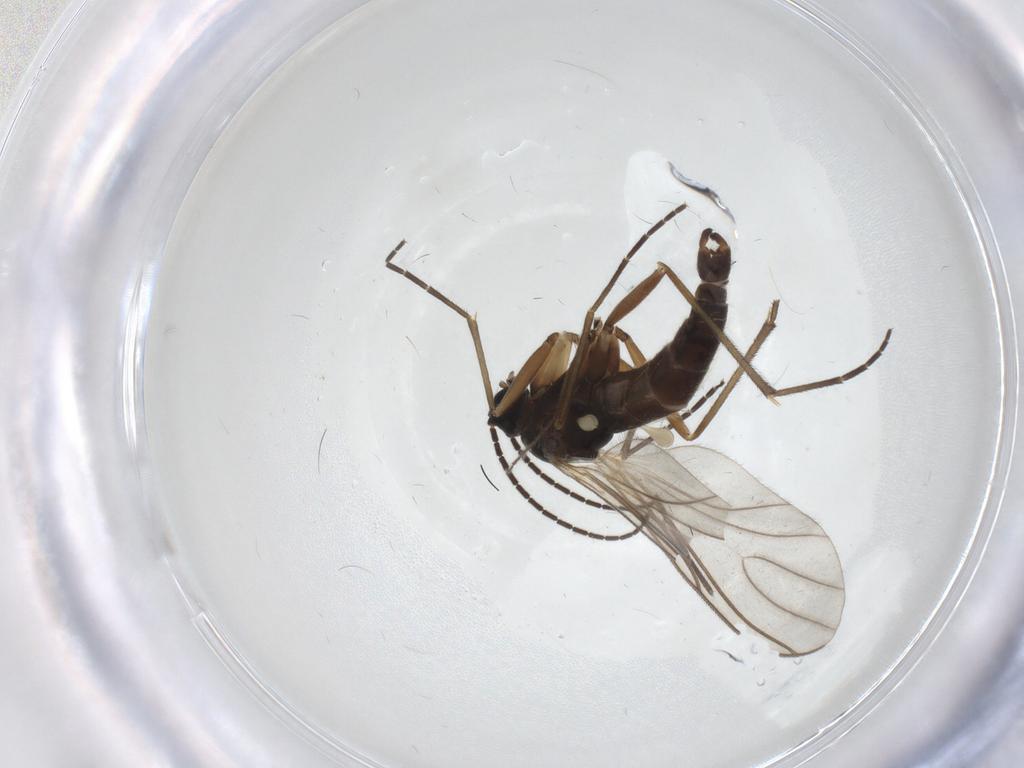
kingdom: Animalia
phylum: Arthropoda
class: Insecta
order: Diptera
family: Sciaridae
